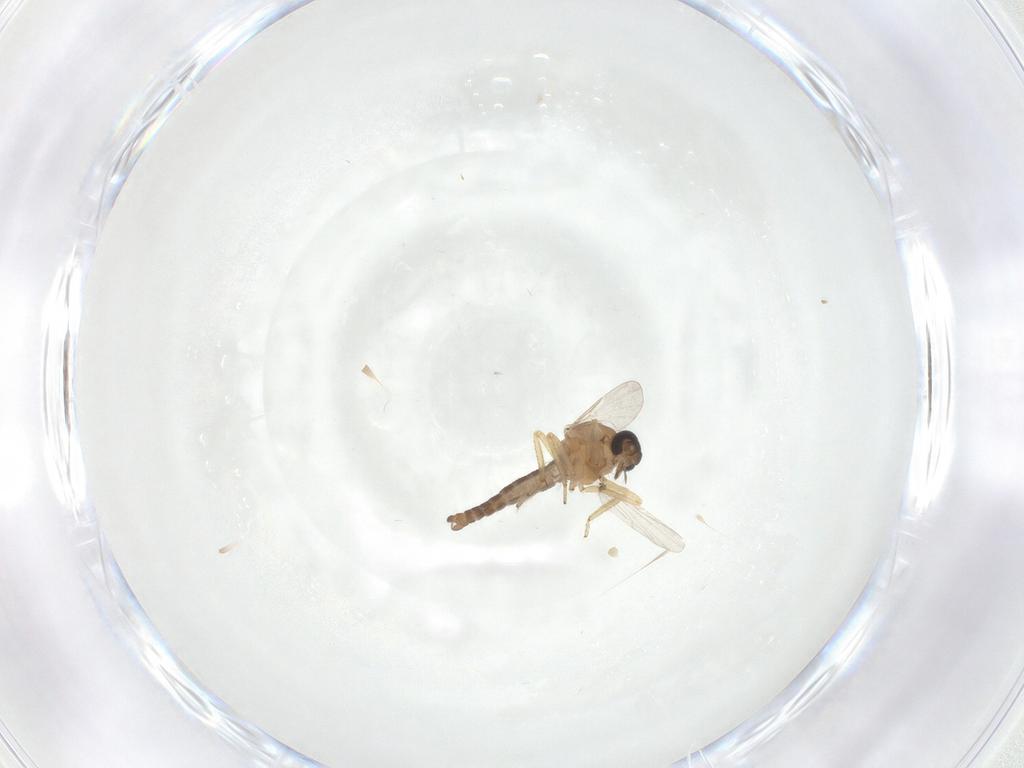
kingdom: Animalia
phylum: Arthropoda
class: Insecta
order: Diptera
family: Ceratopogonidae
